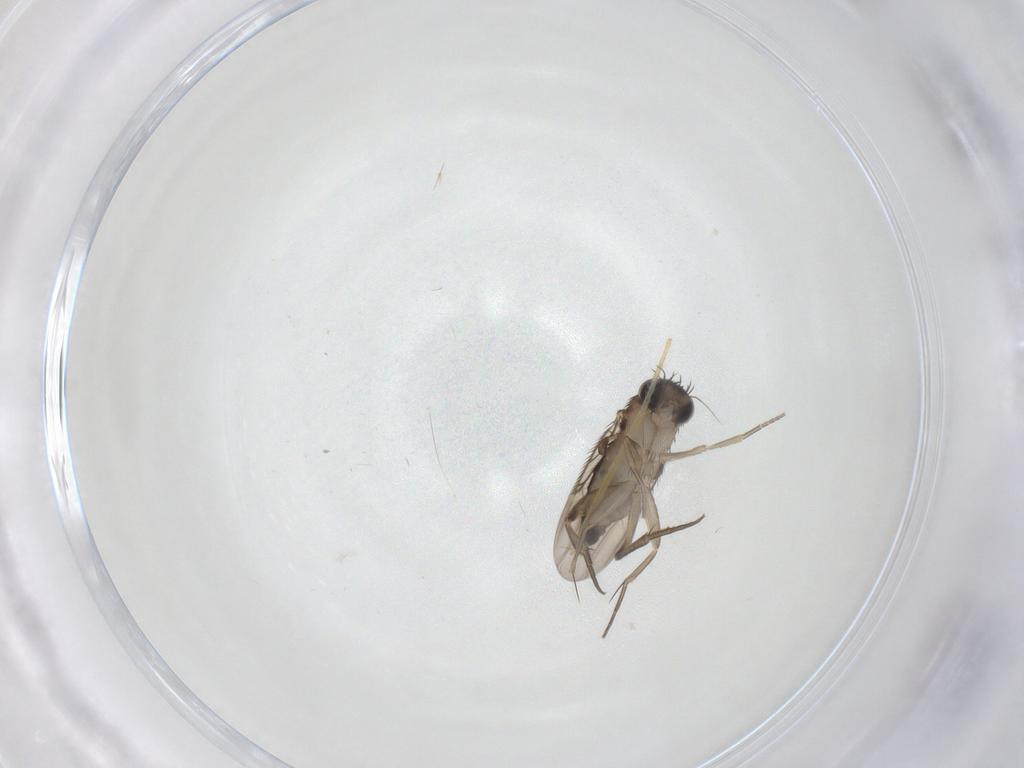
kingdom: Animalia
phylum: Arthropoda
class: Insecta
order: Diptera
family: Phoridae
